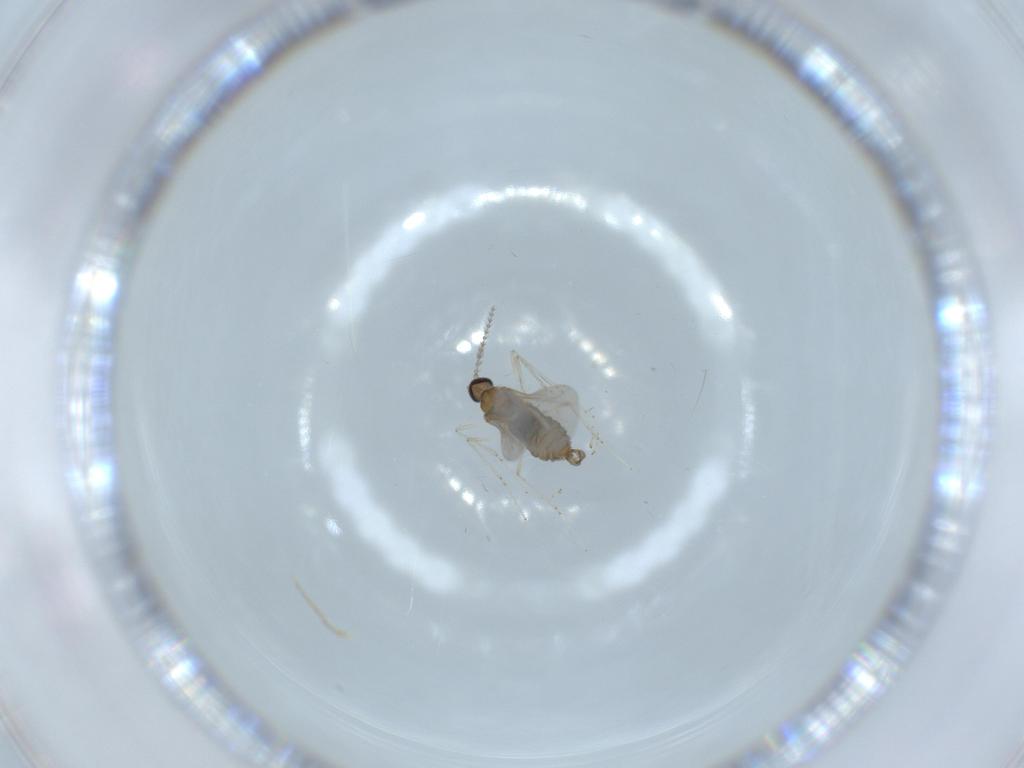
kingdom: Animalia
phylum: Arthropoda
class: Insecta
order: Diptera
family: Cecidomyiidae
